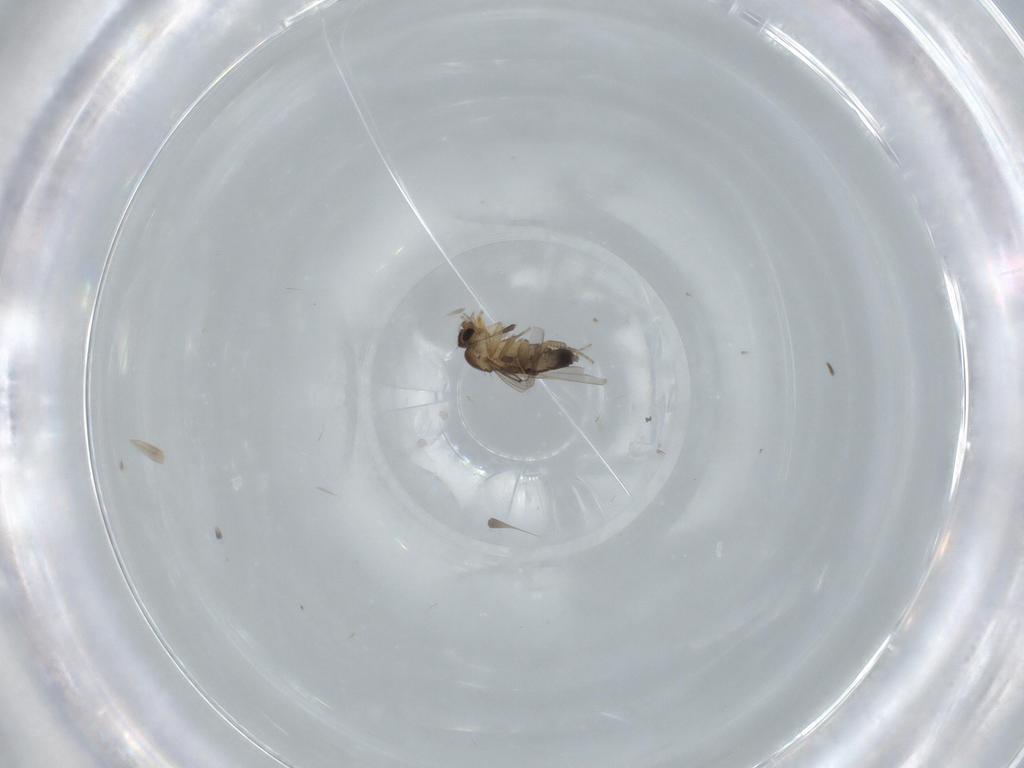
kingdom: Animalia
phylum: Arthropoda
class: Insecta
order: Diptera
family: Phoridae
